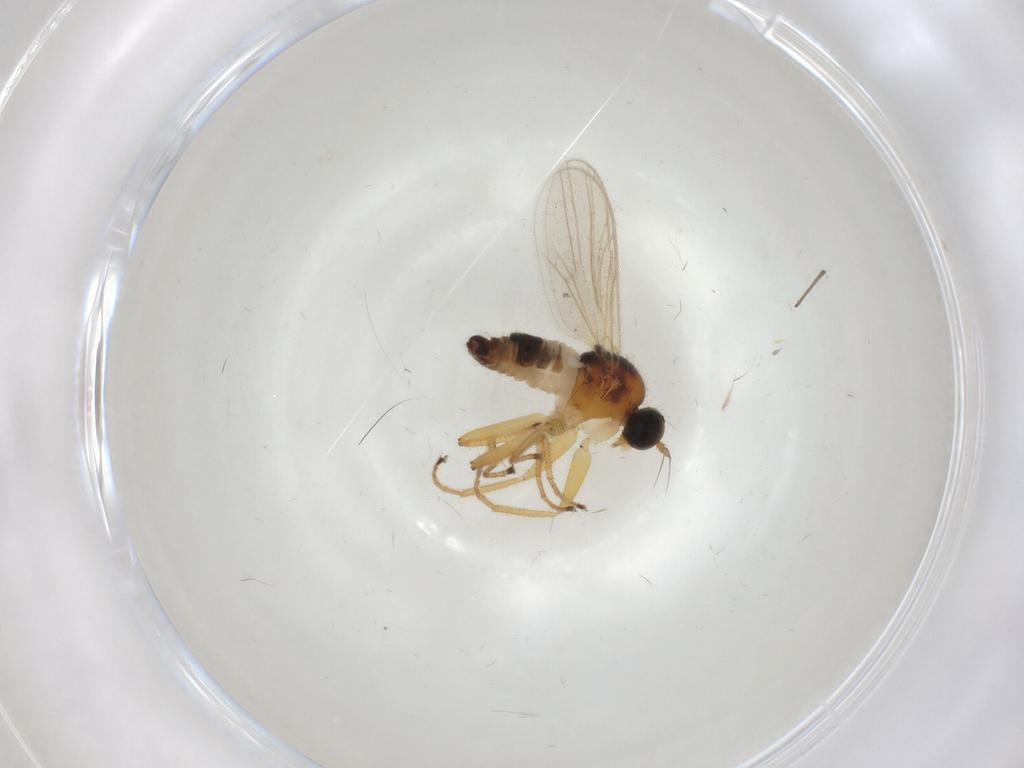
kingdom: Animalia
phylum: Arthropoda
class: Insecta
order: Diptera
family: Hybotidae
